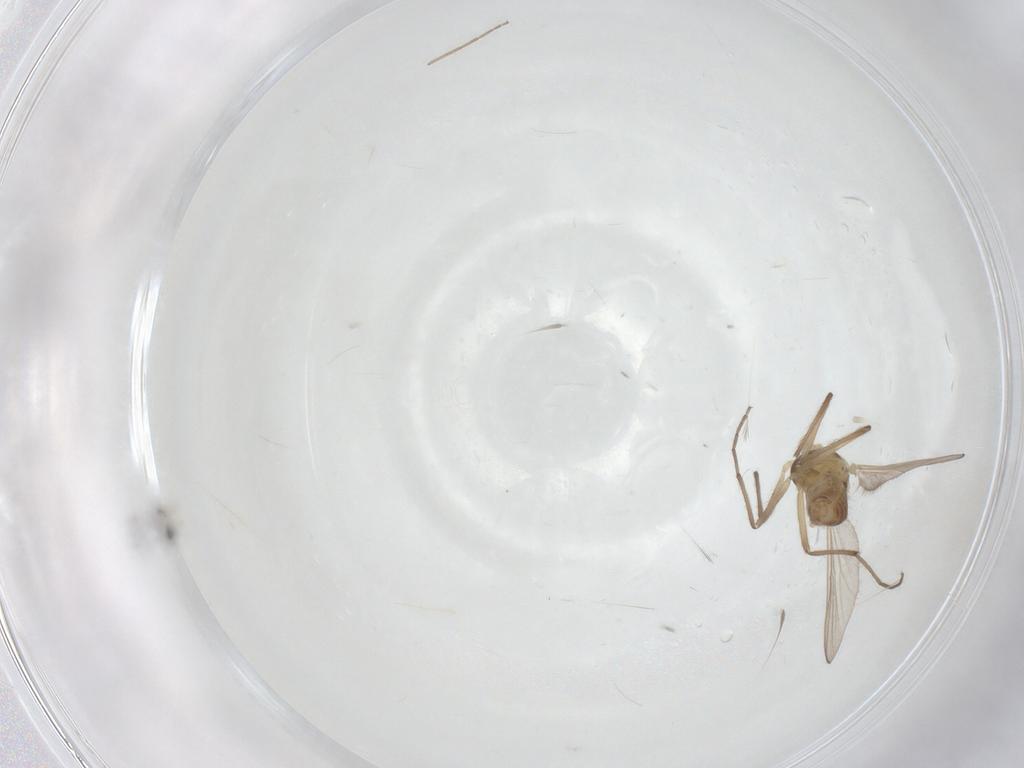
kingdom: Animalia
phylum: Arthropoda
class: Insecta
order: Diptera
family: Chironomidae
